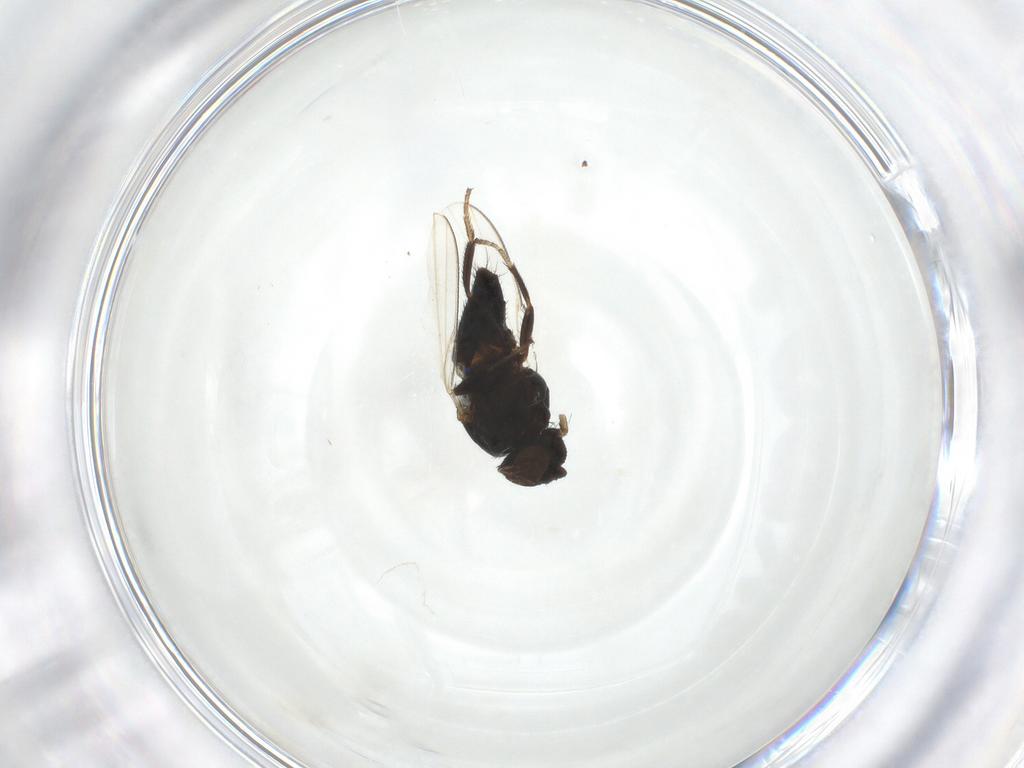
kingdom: Animalia
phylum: Arthropoda
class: Insecta
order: Diptera
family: Milichiidae
